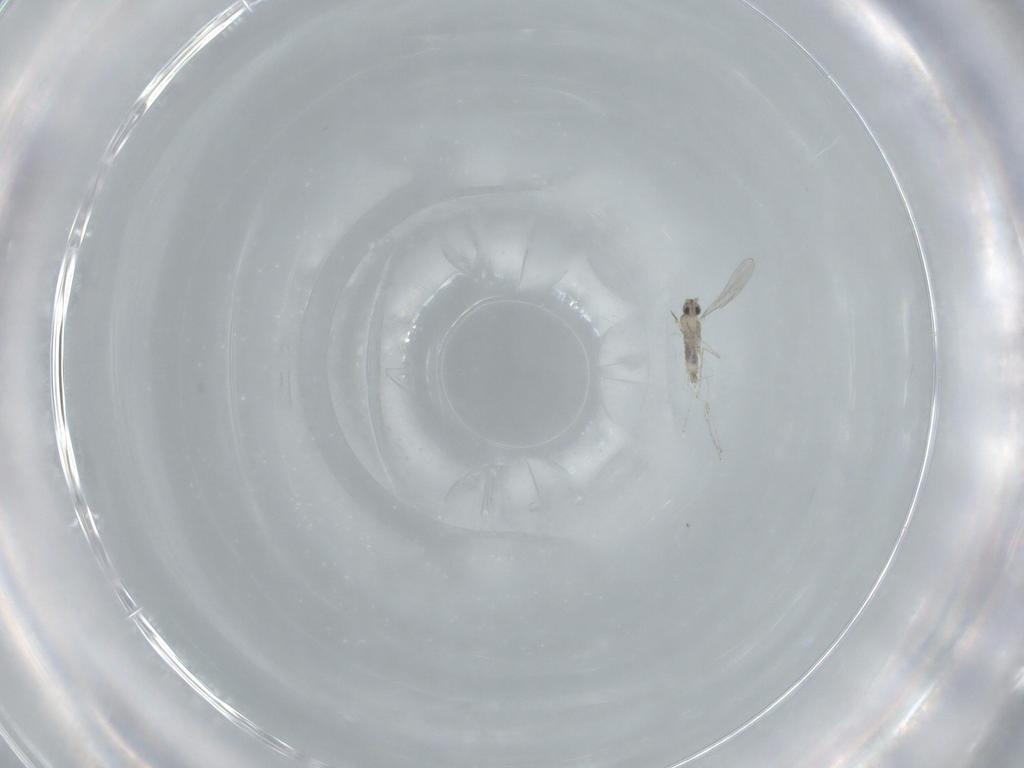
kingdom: Animalia
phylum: Arthropoda
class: Insecta
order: Diptera
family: Cecidomyiidae
